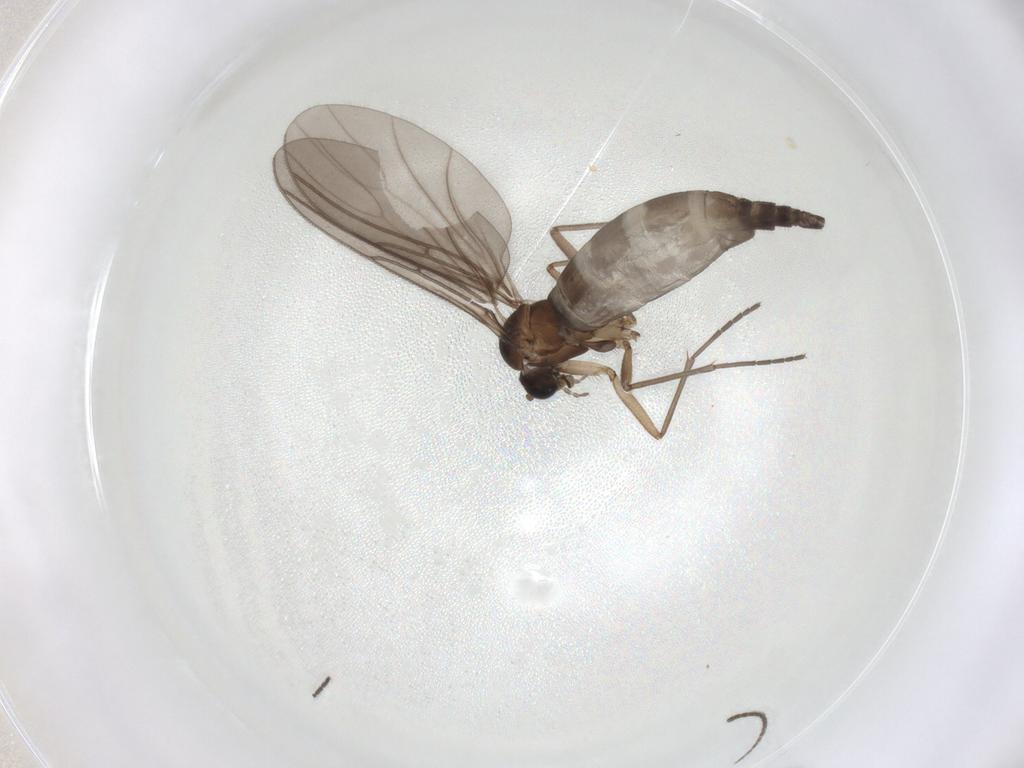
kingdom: Animalia
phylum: Arthropoda
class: Insecta
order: Diptera
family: Sciaridae
